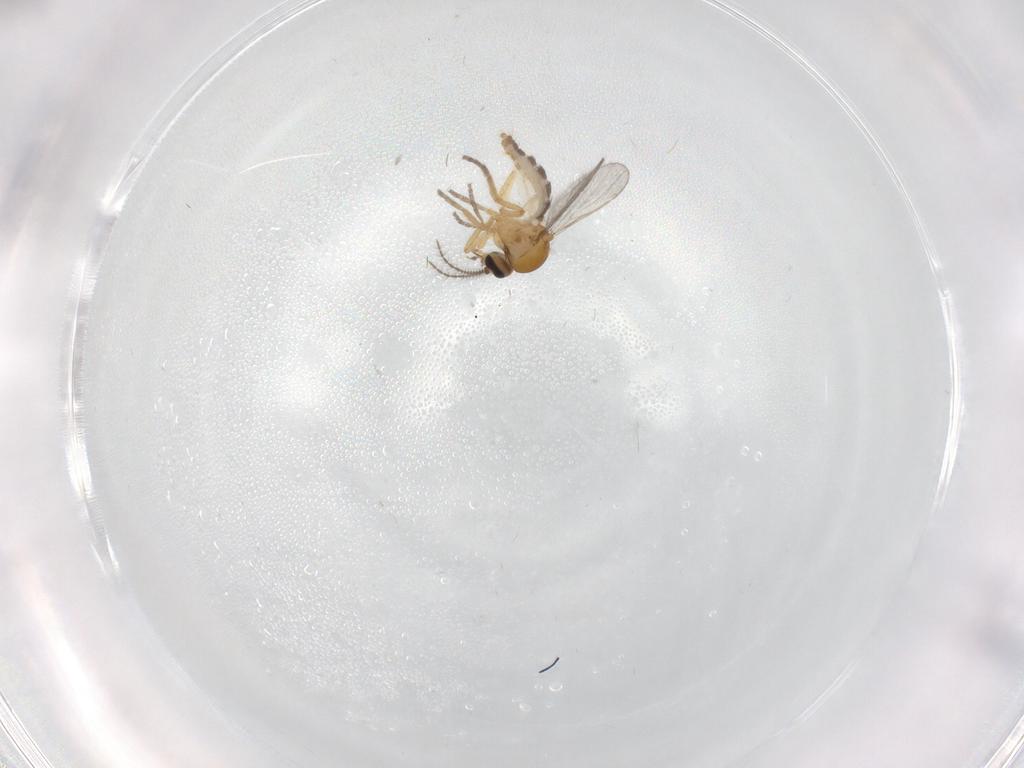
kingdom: Animalia
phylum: Arthropoda
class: Insecta
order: Diptera
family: Ceratopogonidae
